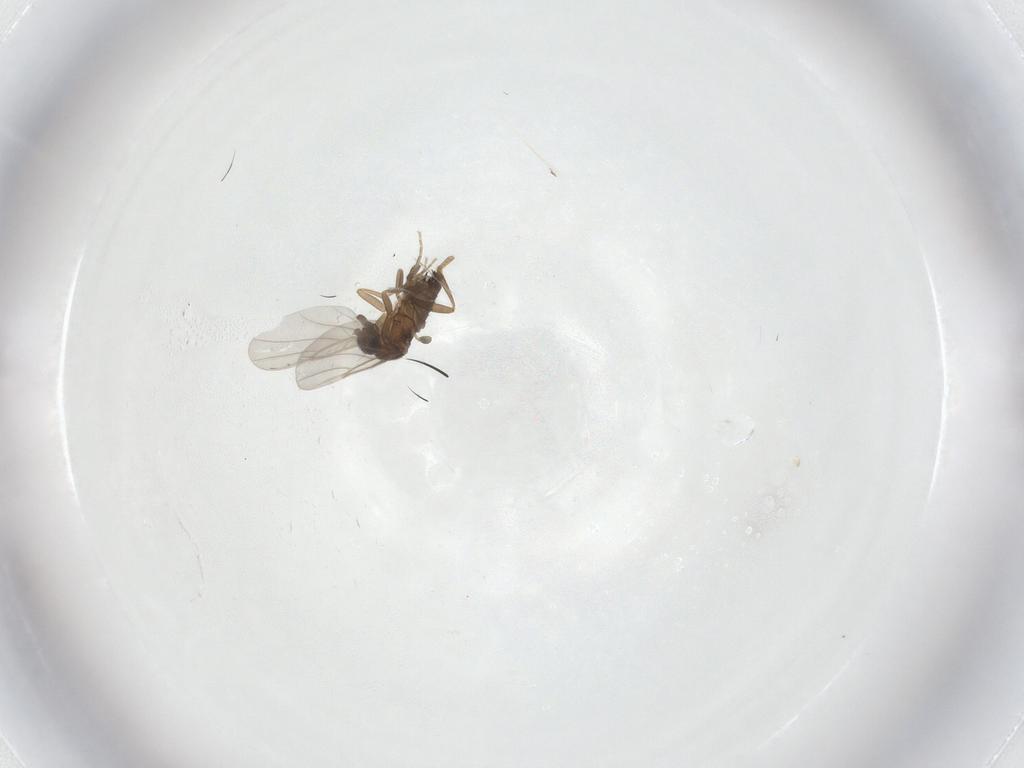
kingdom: Animalia
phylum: Arthropoda
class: Insecta
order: Diptera
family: Phoridae
